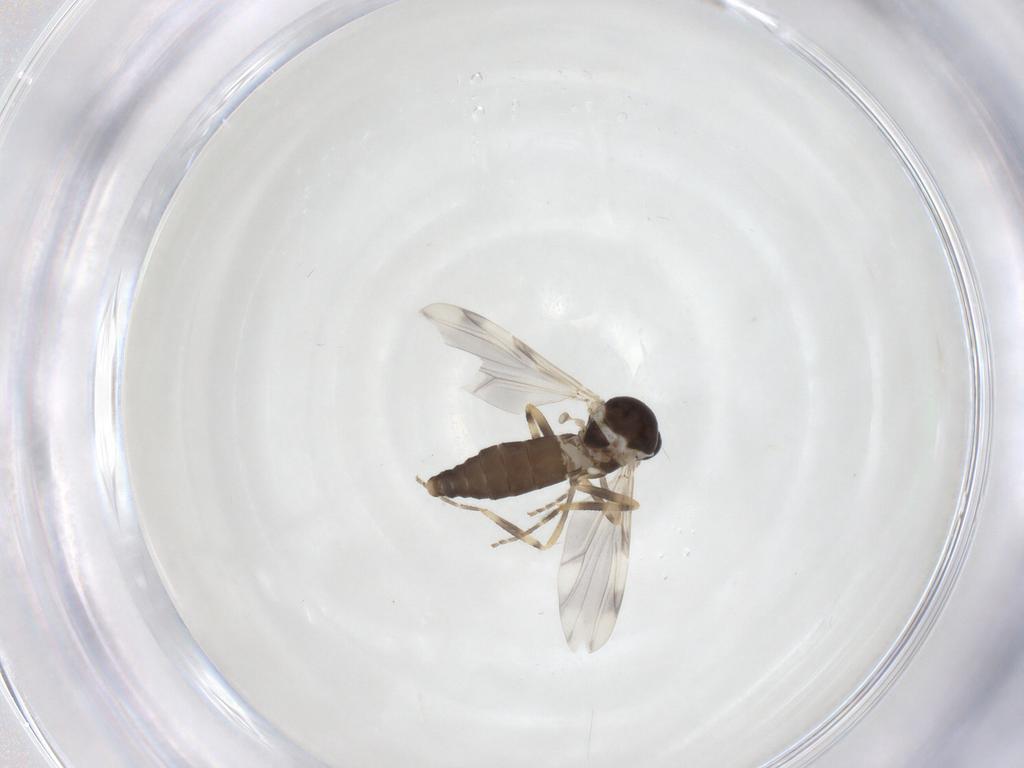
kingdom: Animalia
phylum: Arthropoda
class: Insecta
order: Diptera
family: Ceratopogonidae
